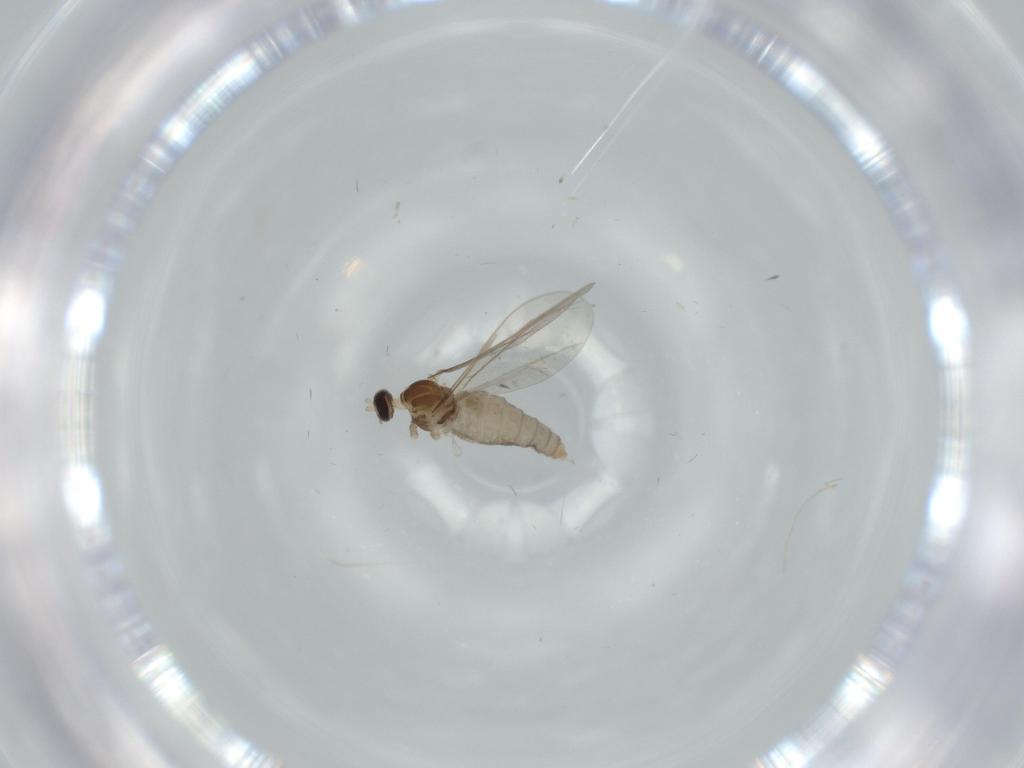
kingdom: Animalia
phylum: Arthropoda
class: Insecta
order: Diptera
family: Cecidomyiidae
